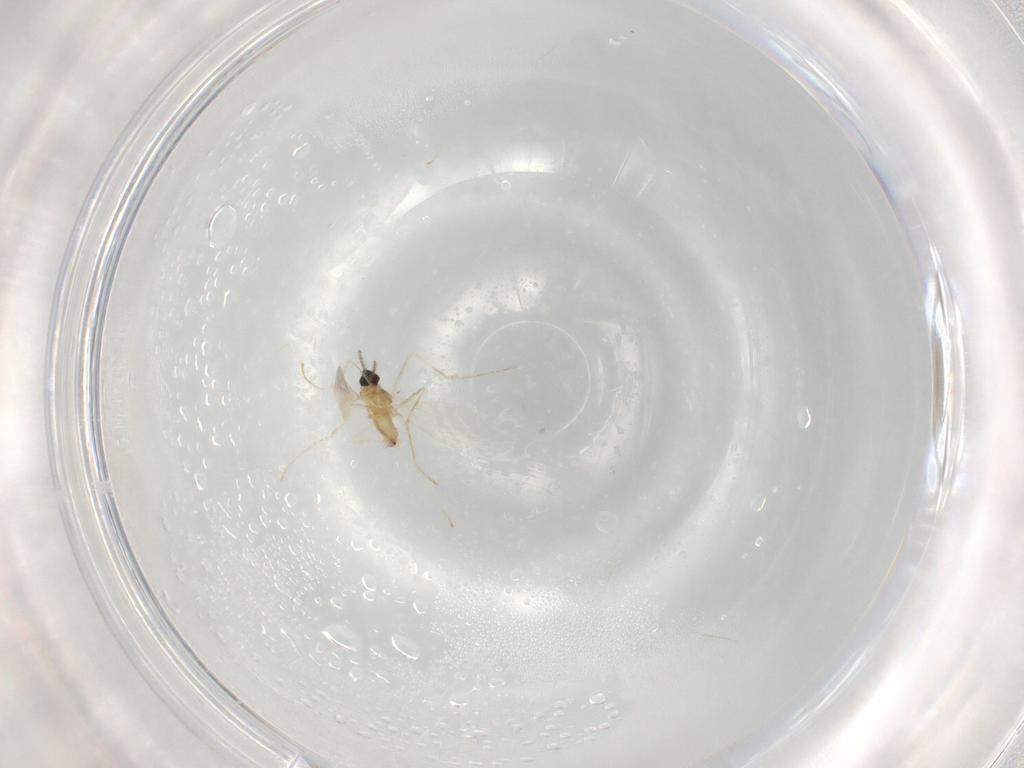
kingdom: Animalia
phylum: Arthropoda
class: Insecta
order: Diptera
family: Cecidomyiidae
